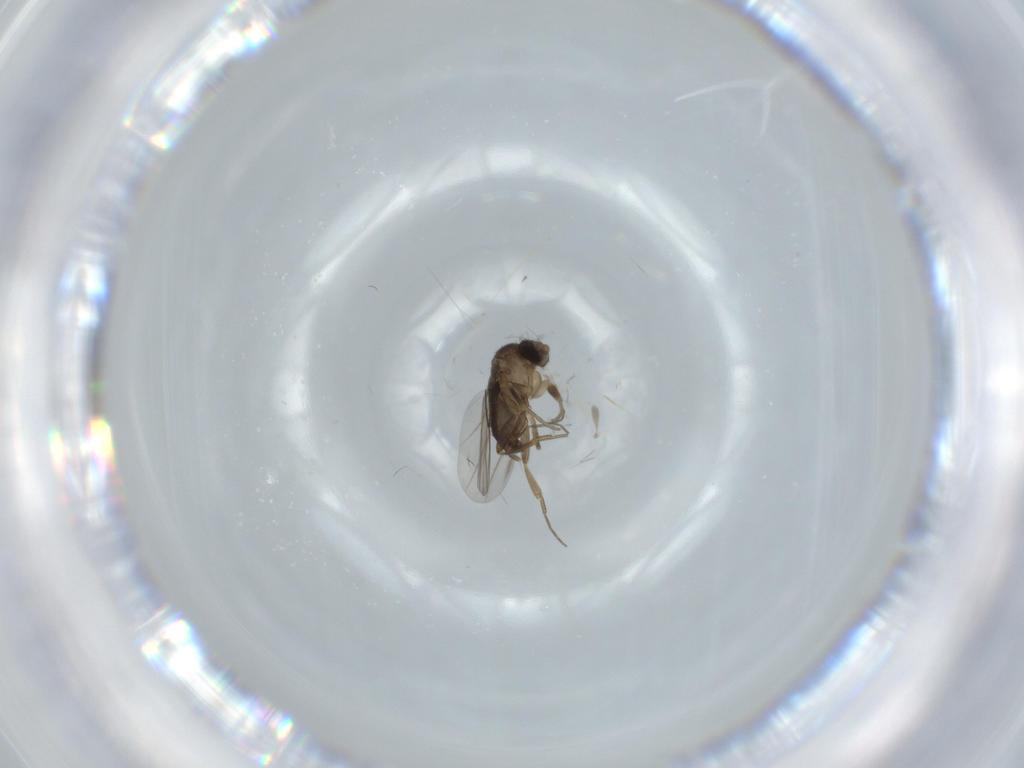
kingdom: Animalia
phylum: Arthropoda
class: Insecta
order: Diptera
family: Phoridae
